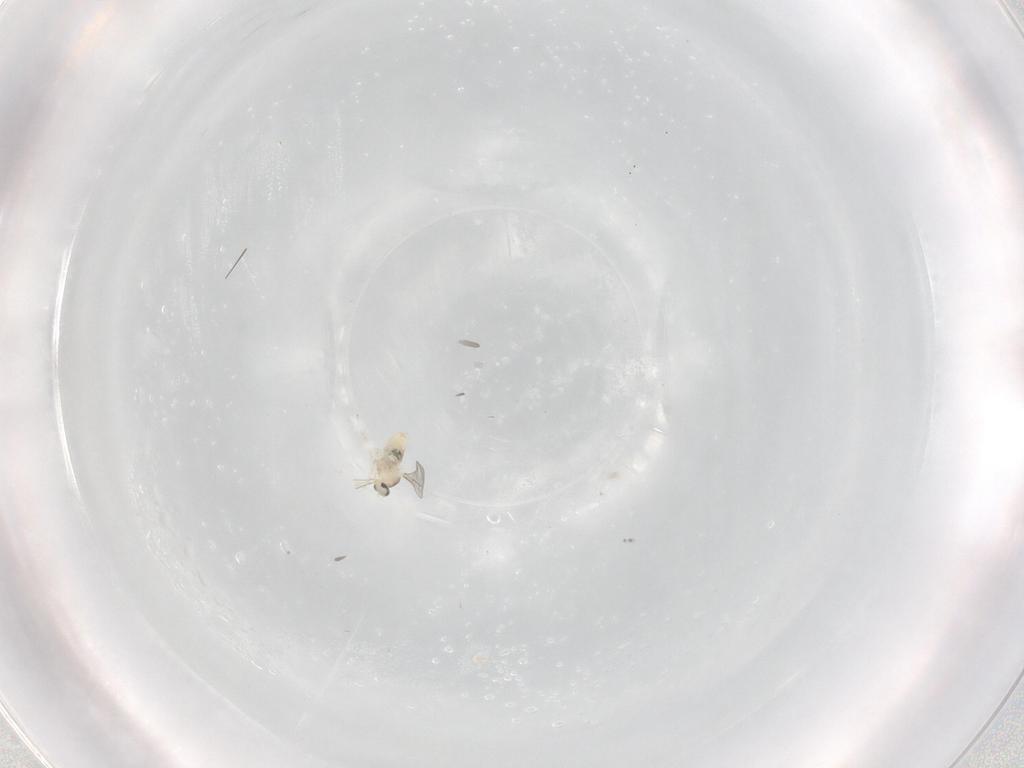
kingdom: Animalia
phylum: Arthropoda
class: Insecta
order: Diptera
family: Cecidomyiidae
